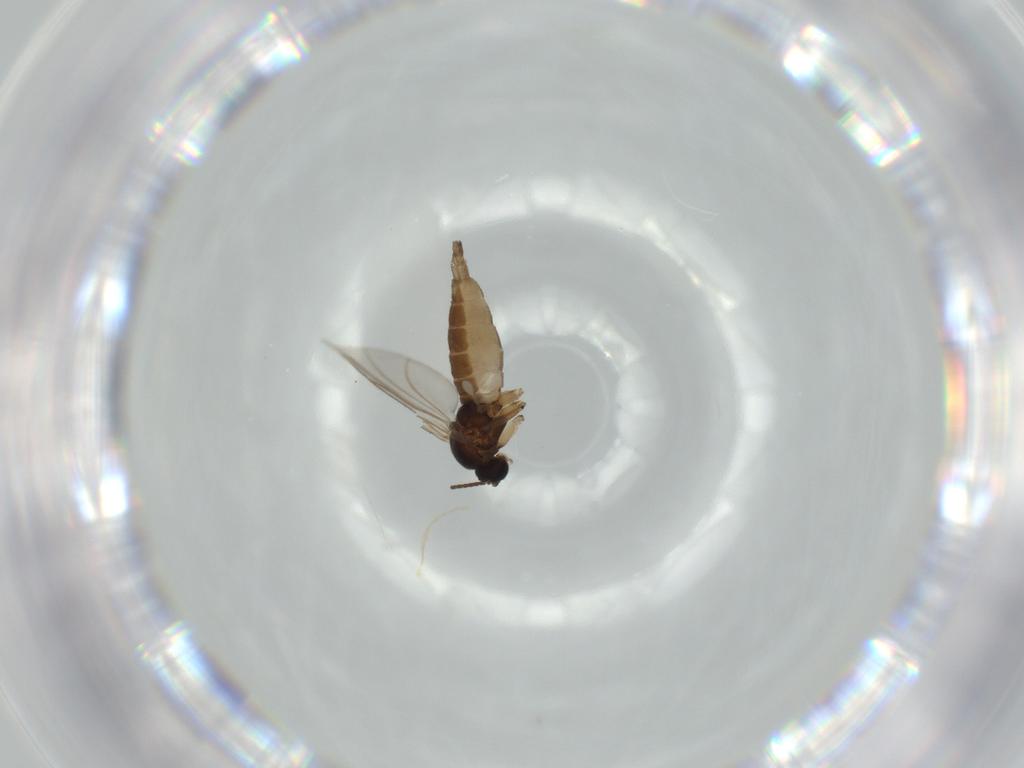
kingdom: Animalia
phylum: Arthropoda
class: Insecta
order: Diptera
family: Sciaridae
